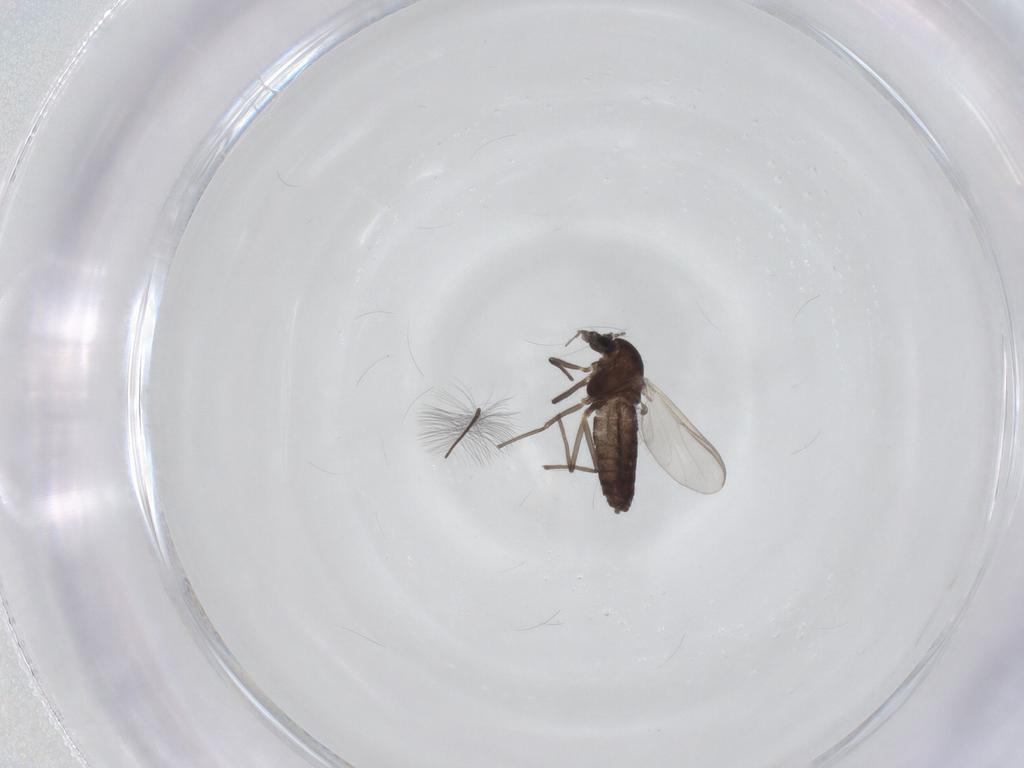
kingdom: Animalia
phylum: Arthropoda
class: Insecta
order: Diptera
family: Chironomidae
